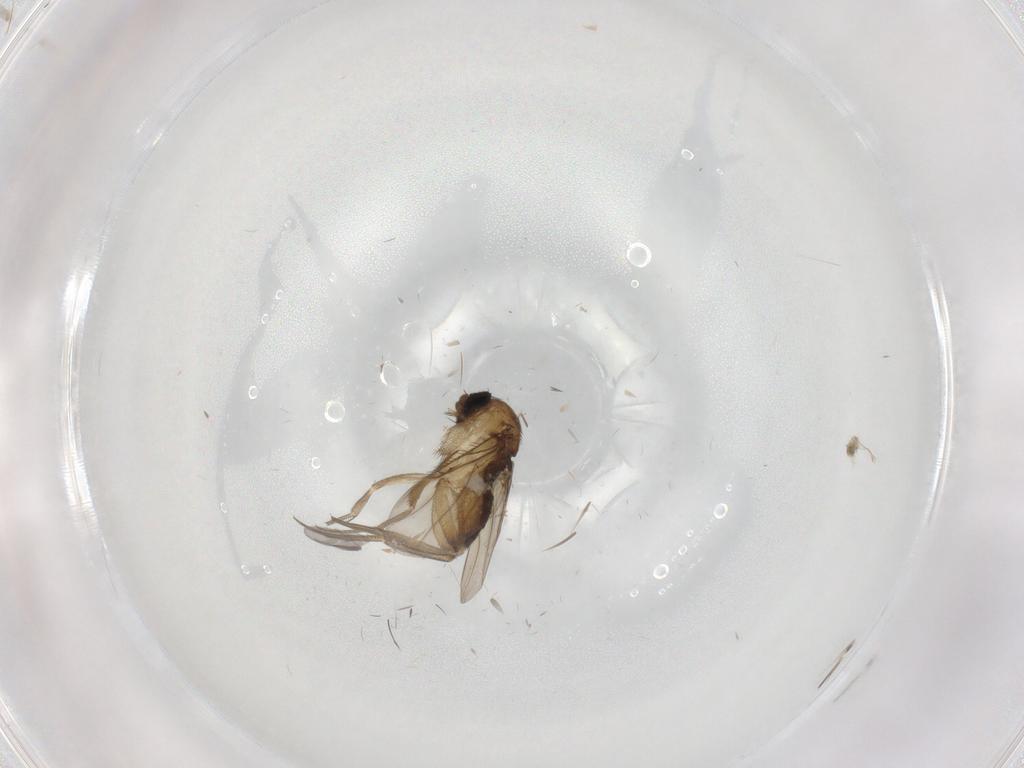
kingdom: Animalia
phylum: Arthropoda
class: Insecta
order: Diptera
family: Phoridae
